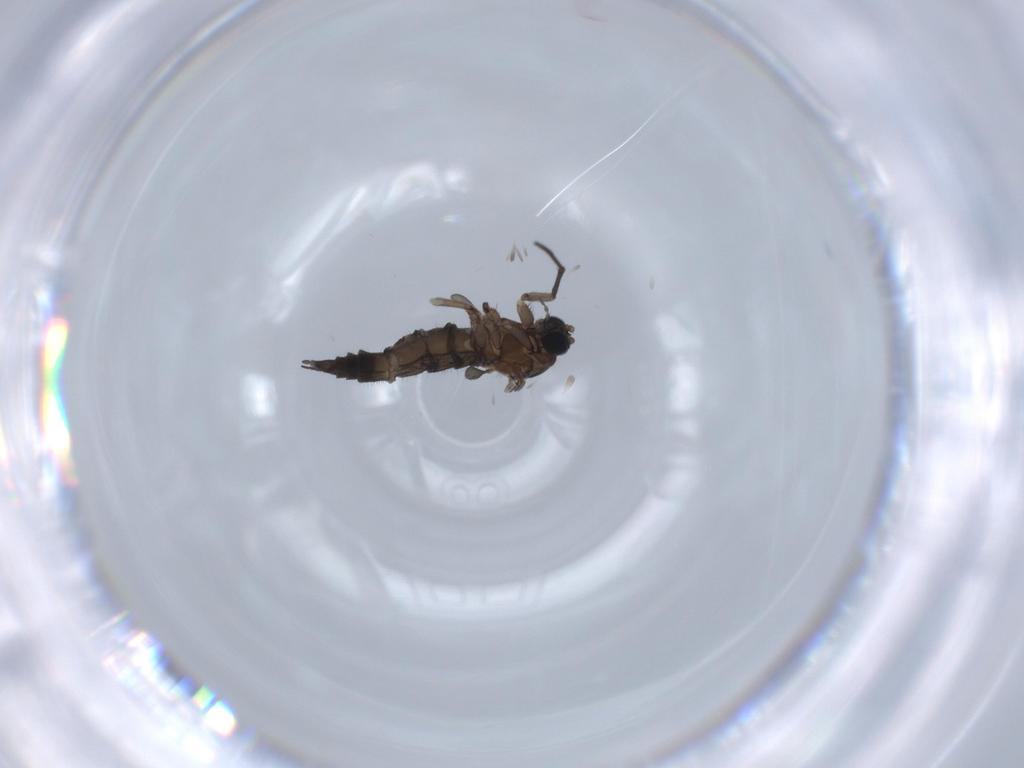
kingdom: Animalia
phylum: Arthropoda
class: Insecta
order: Diptera
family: Sciaridae
